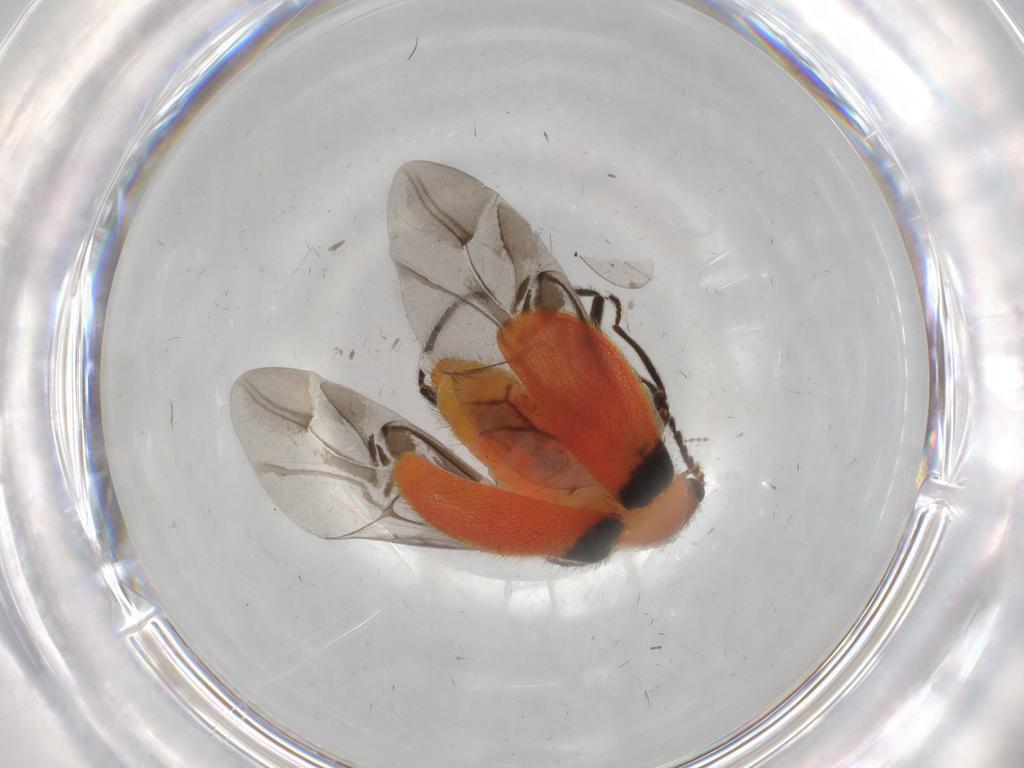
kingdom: Animalia
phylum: Arthropoda
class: Insecta
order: Coleoptera
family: Melyridae
